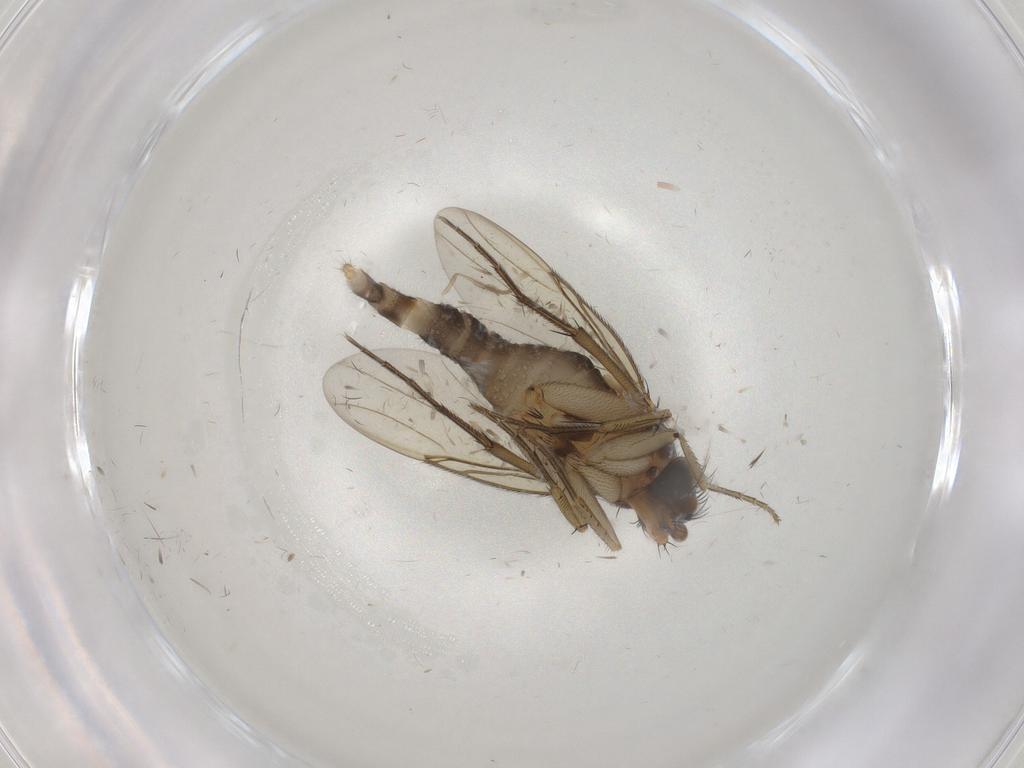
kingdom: Animalia
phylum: Arthropoda
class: Insecta
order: Diptera
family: Psychodidae
